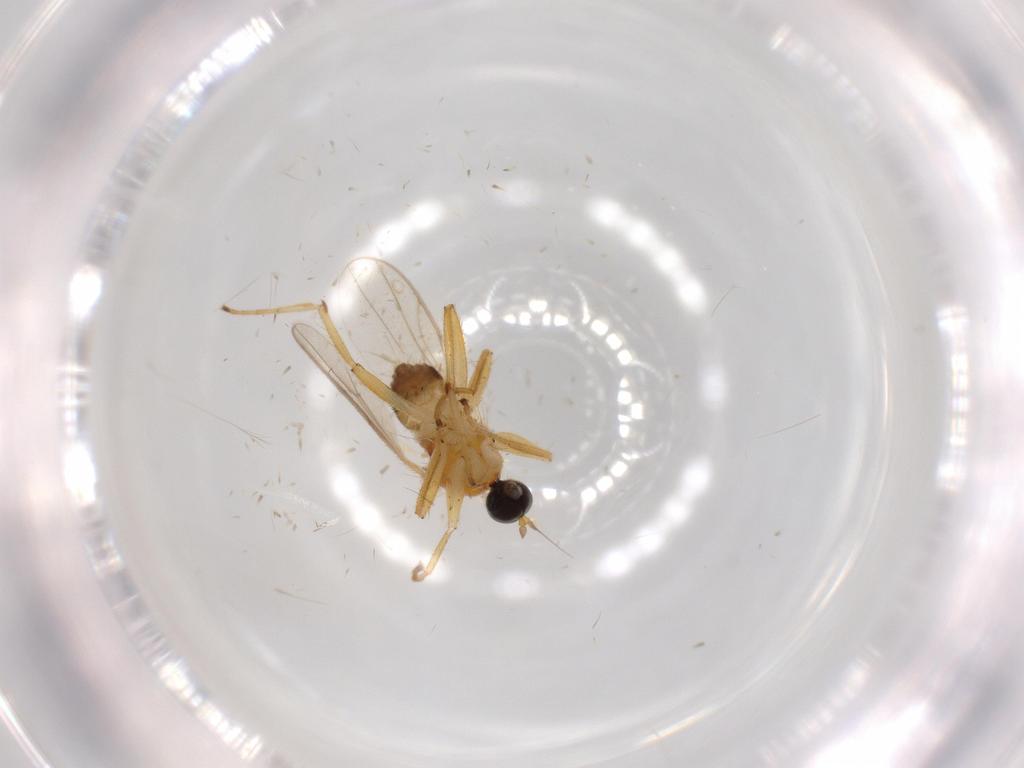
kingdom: Animalia
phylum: Arthropoda
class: Insecta
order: Diptera
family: Hybotidae
